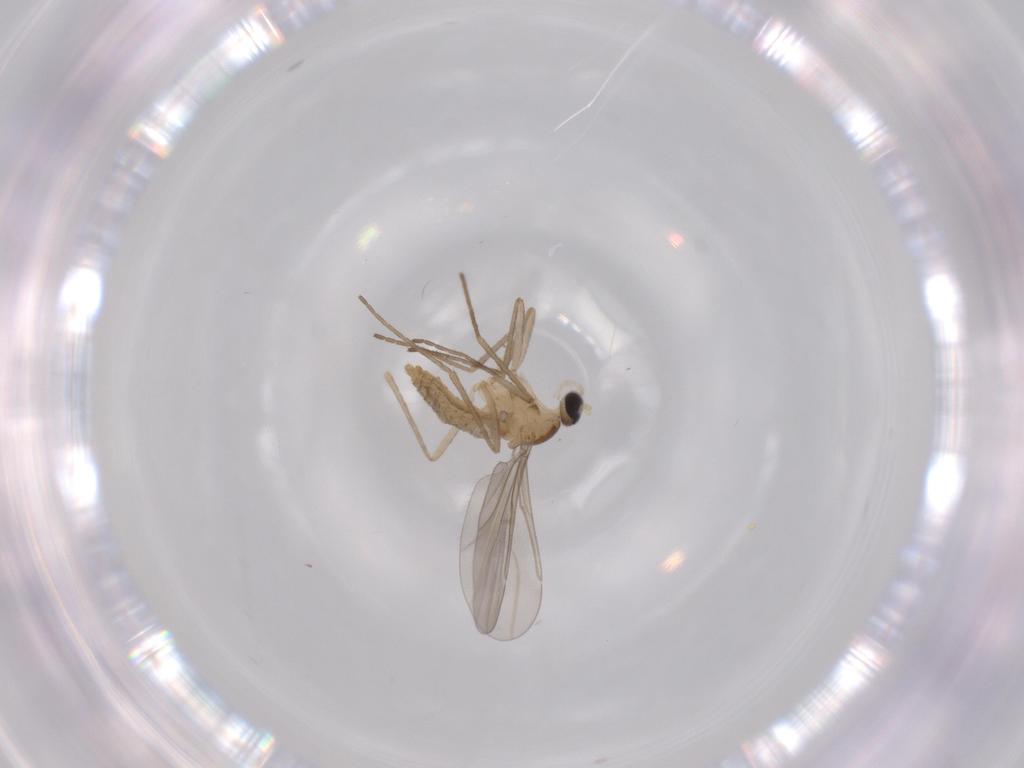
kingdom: Animalia
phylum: Arthropoda
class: Insecta
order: Diptera
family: Cecidomyiidae
